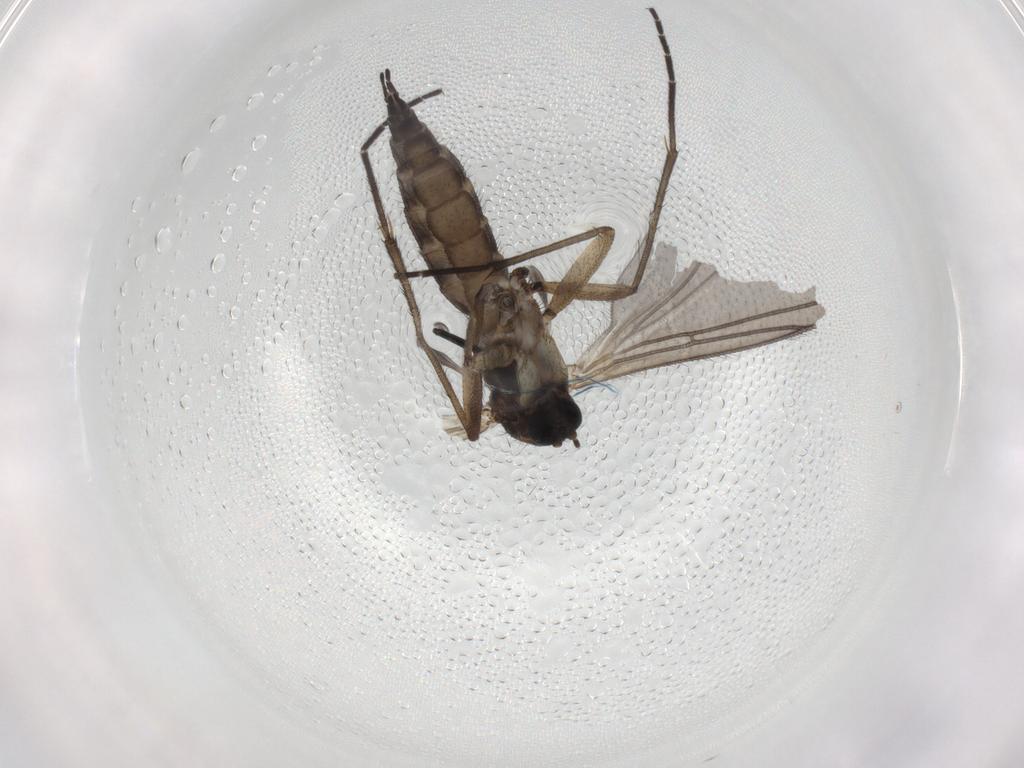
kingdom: Animalia
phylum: Arthropoda
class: Insecta
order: Diptera
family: Sciaridae
